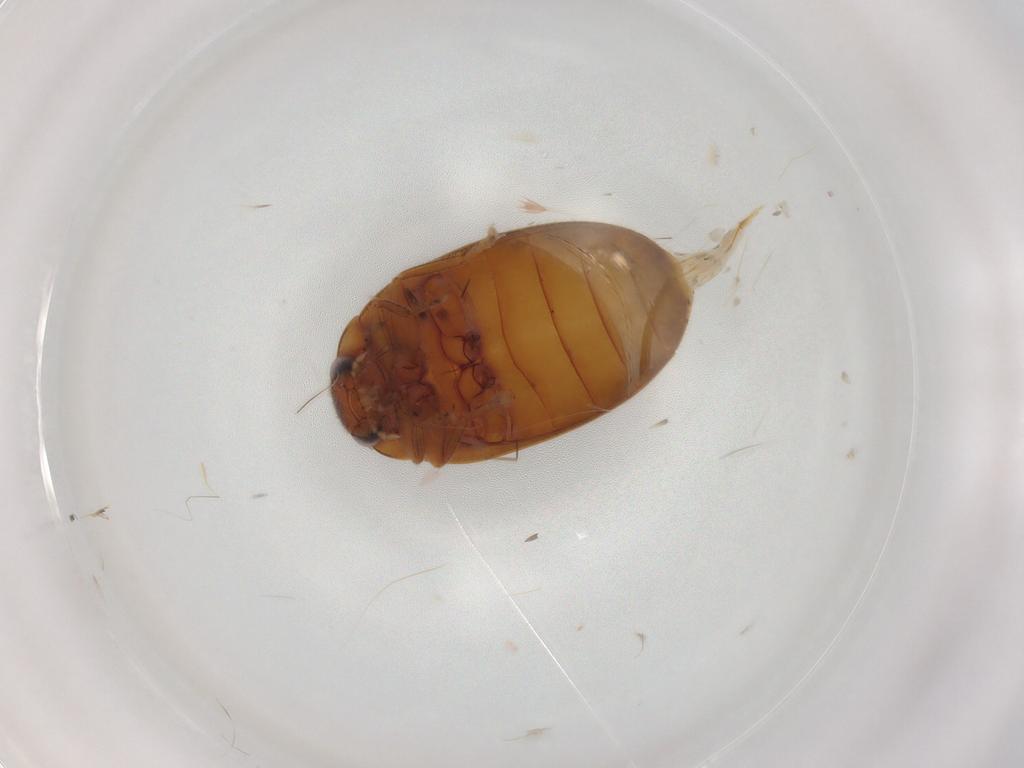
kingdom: Animalia
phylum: Arthropoda
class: Insecta
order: Coleoptera
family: Scirtidae
